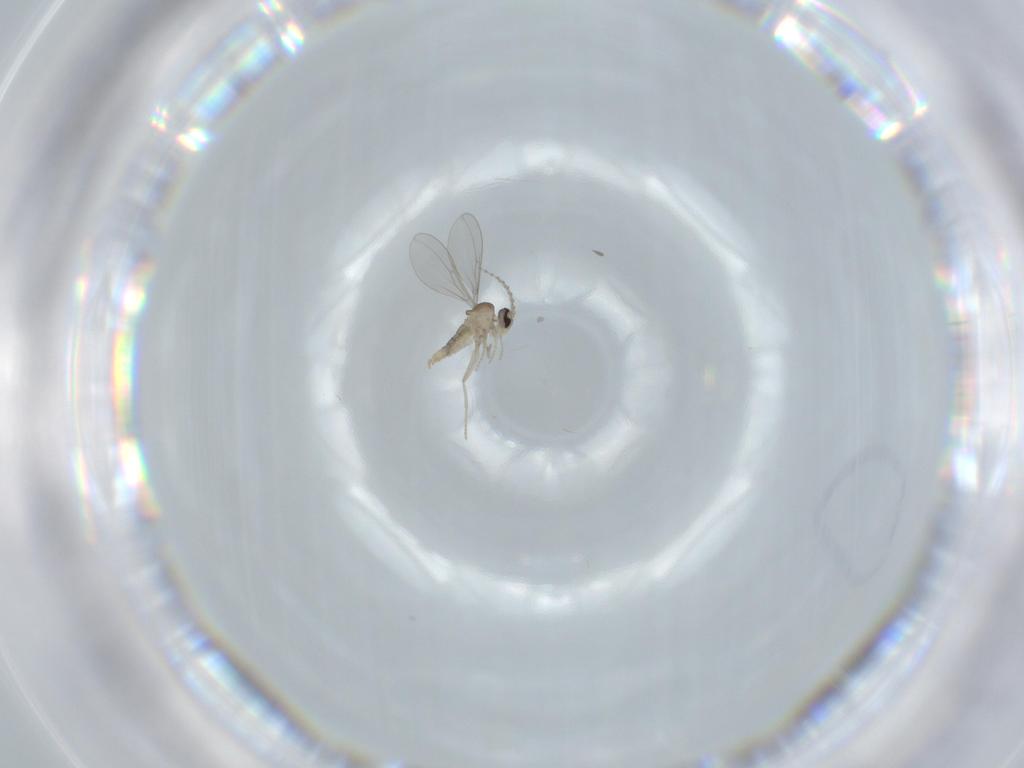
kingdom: Animalia
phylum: Arthropoda
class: Insecta
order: Diptera
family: Cecidomyiidae
